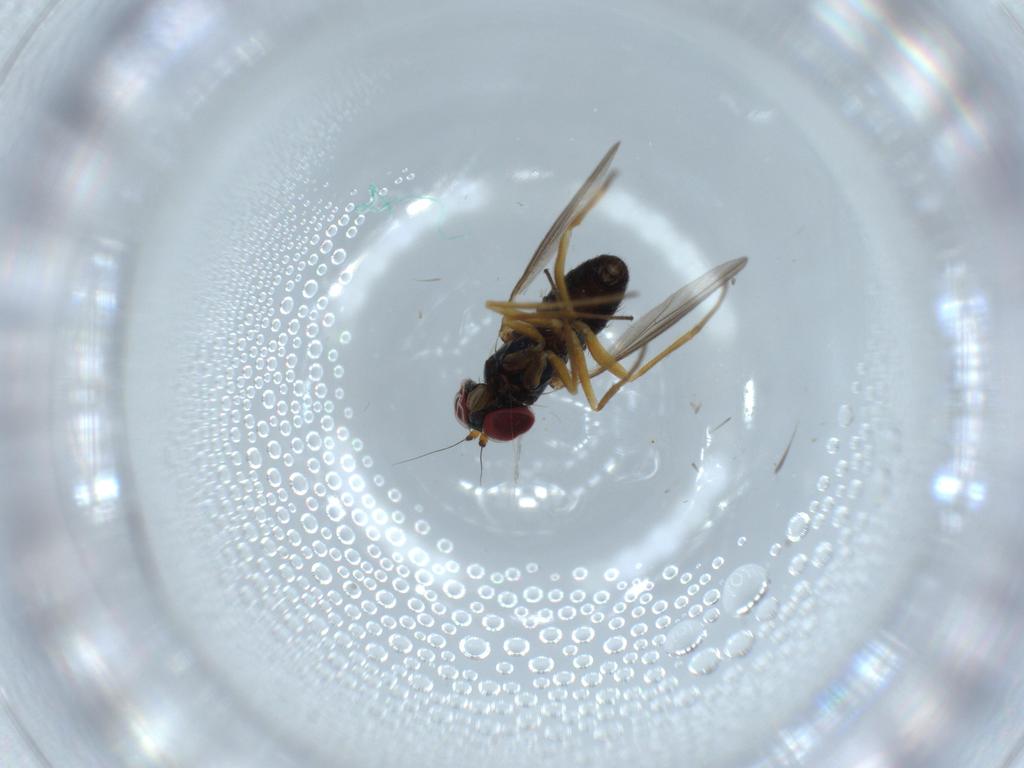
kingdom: Animalia
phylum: Arthropoda
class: Insecta
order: Diptera
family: Dolichopodidae
